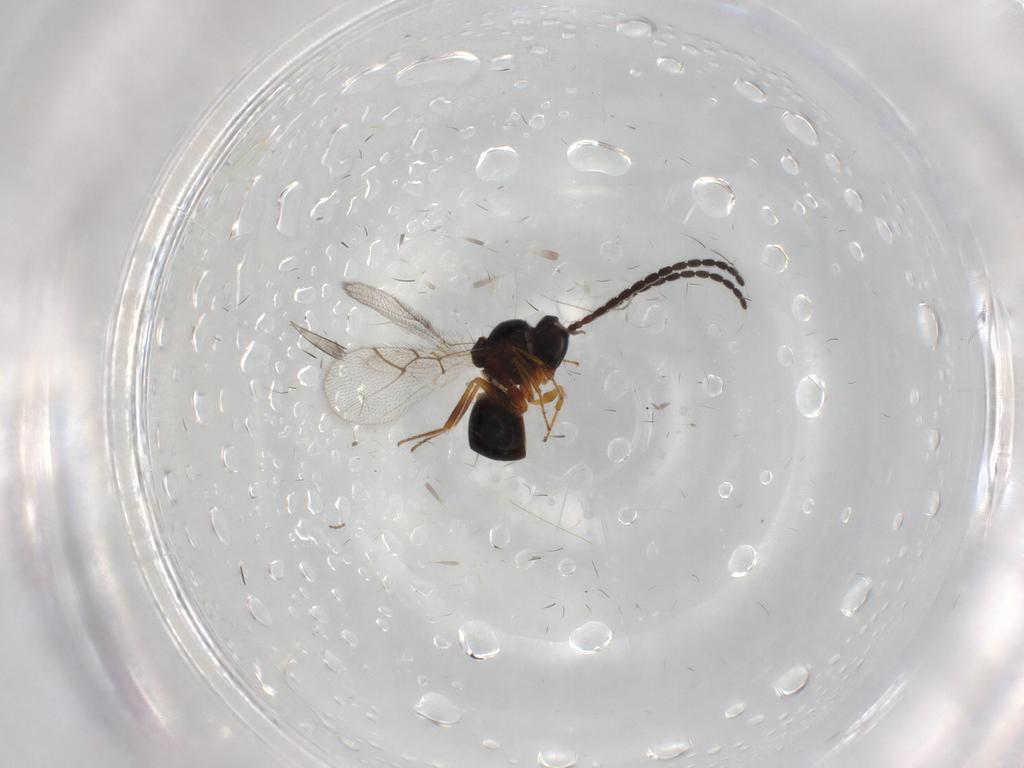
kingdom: Animalia
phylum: Arthropoda
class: Insecta
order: Hymenoptera
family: Figitidae
